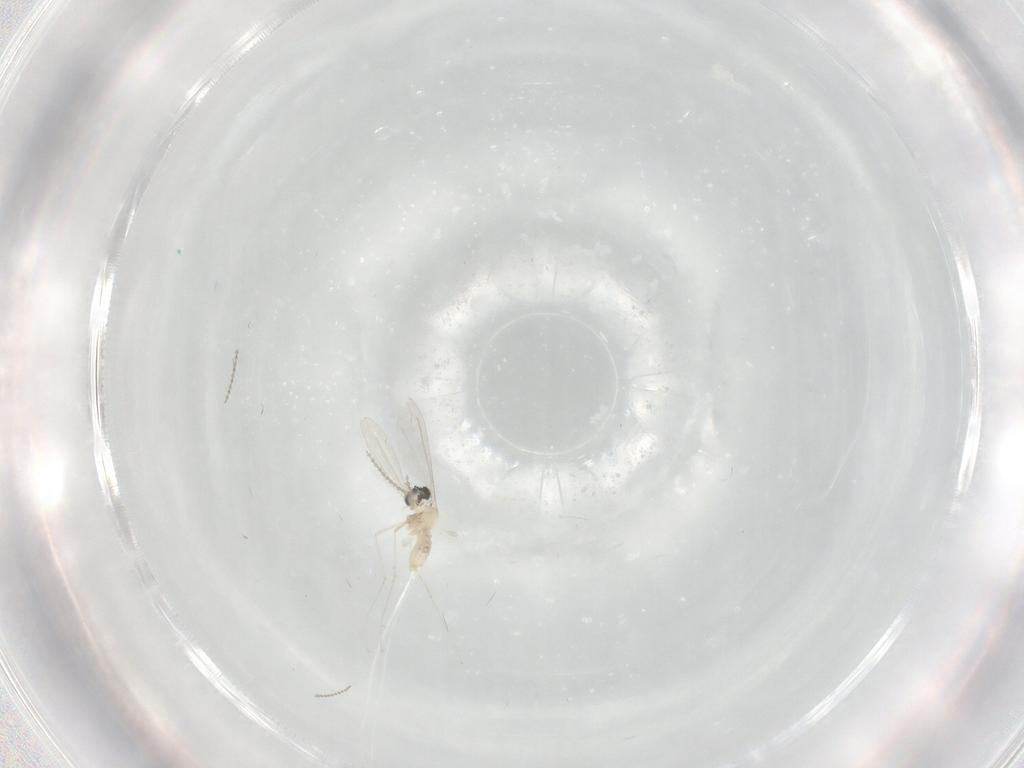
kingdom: Animalia
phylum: Arthropoda
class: Insecta
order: Diptera
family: Cecidomyiidae
